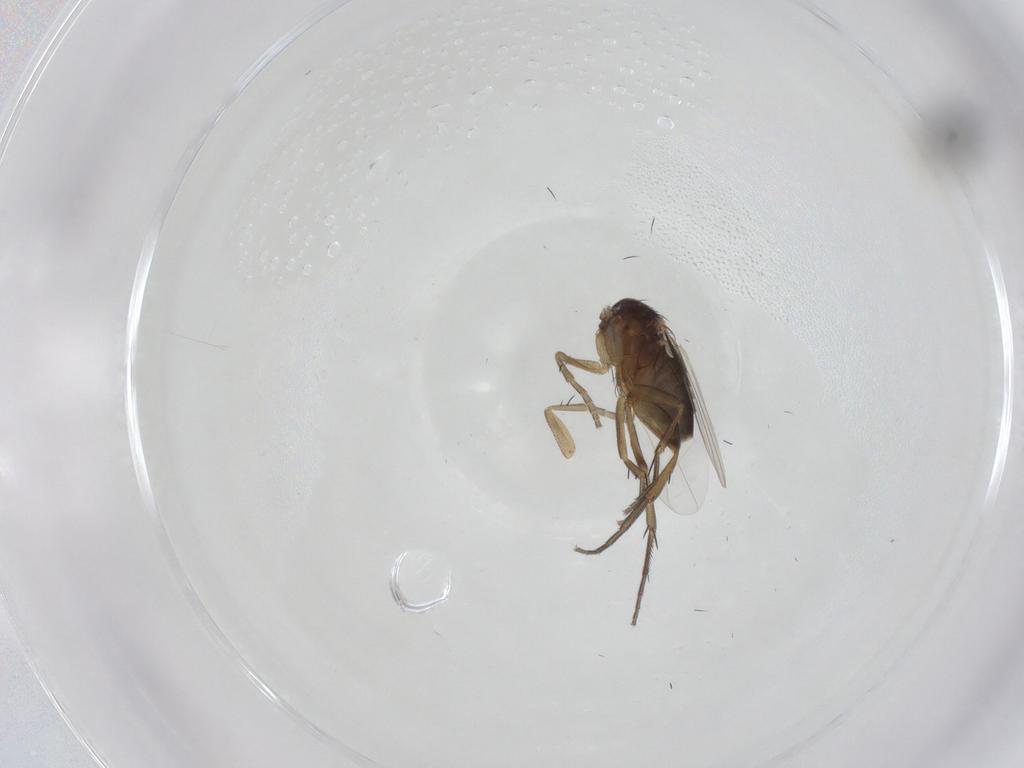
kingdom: Animalia
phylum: Arthropoda
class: Insecta
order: Diptera
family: Phoridae
